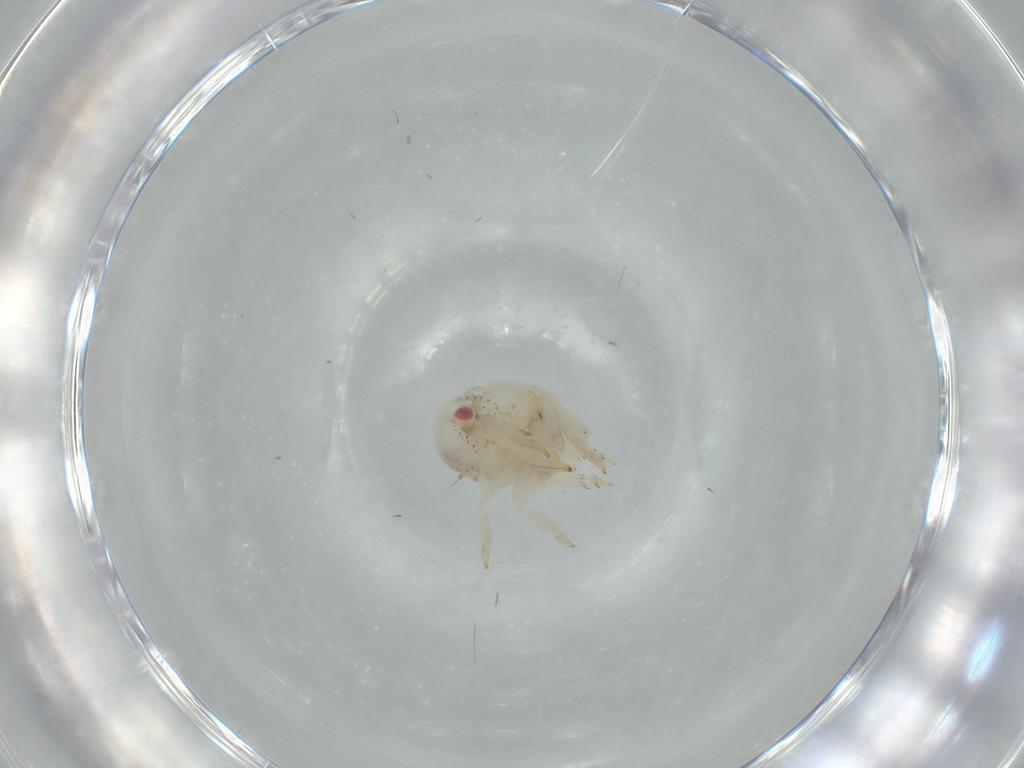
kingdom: Animalia
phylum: Arthropoda
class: Insecta
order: Hemiptera
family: Acanaloniidae
